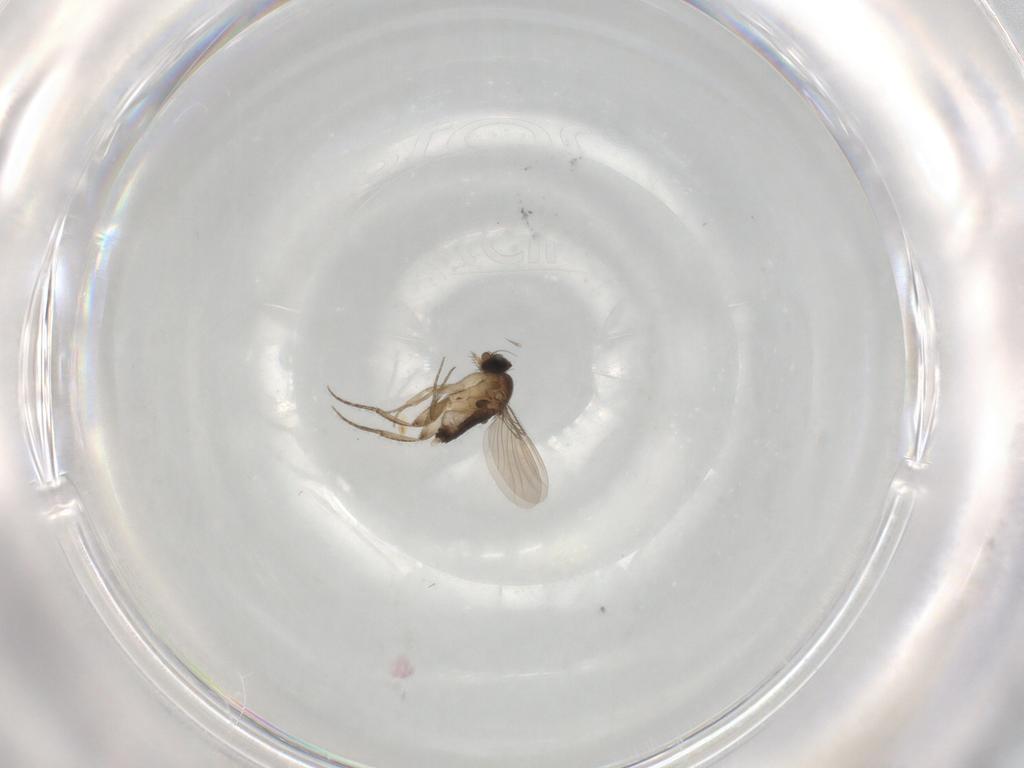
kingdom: Animalia
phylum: Arthropoda
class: Insecta
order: Diptera
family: Phoridae
